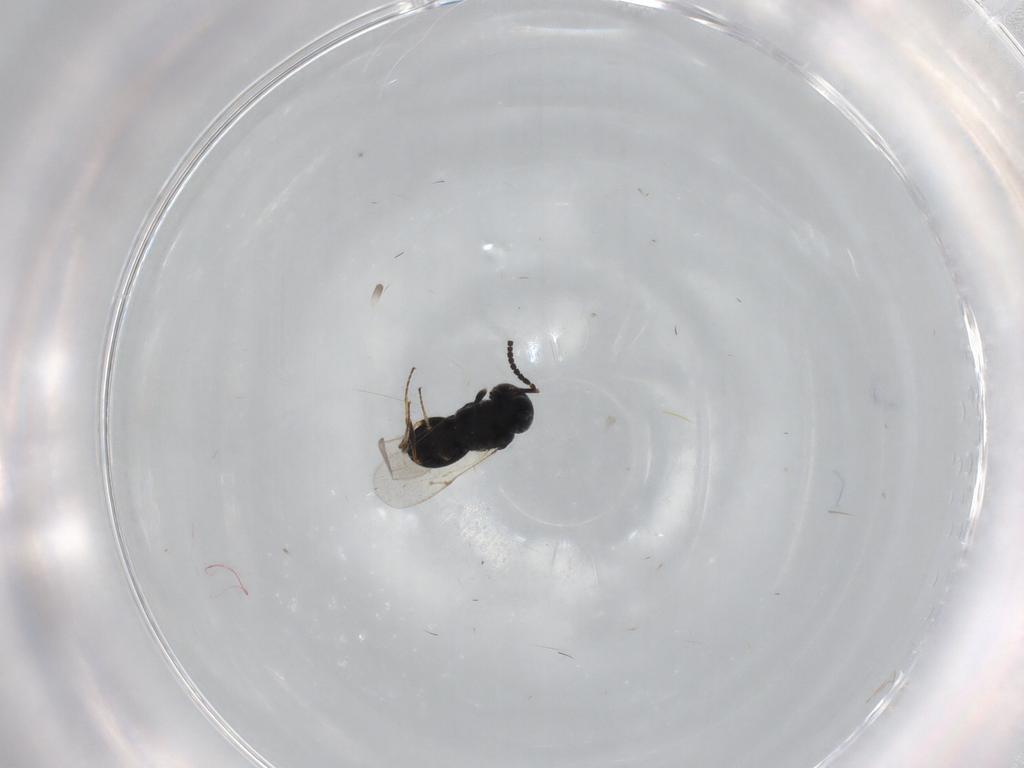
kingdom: Animalia
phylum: Arthropoda
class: Insecta
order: Hymenoptera
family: Scelionidae
